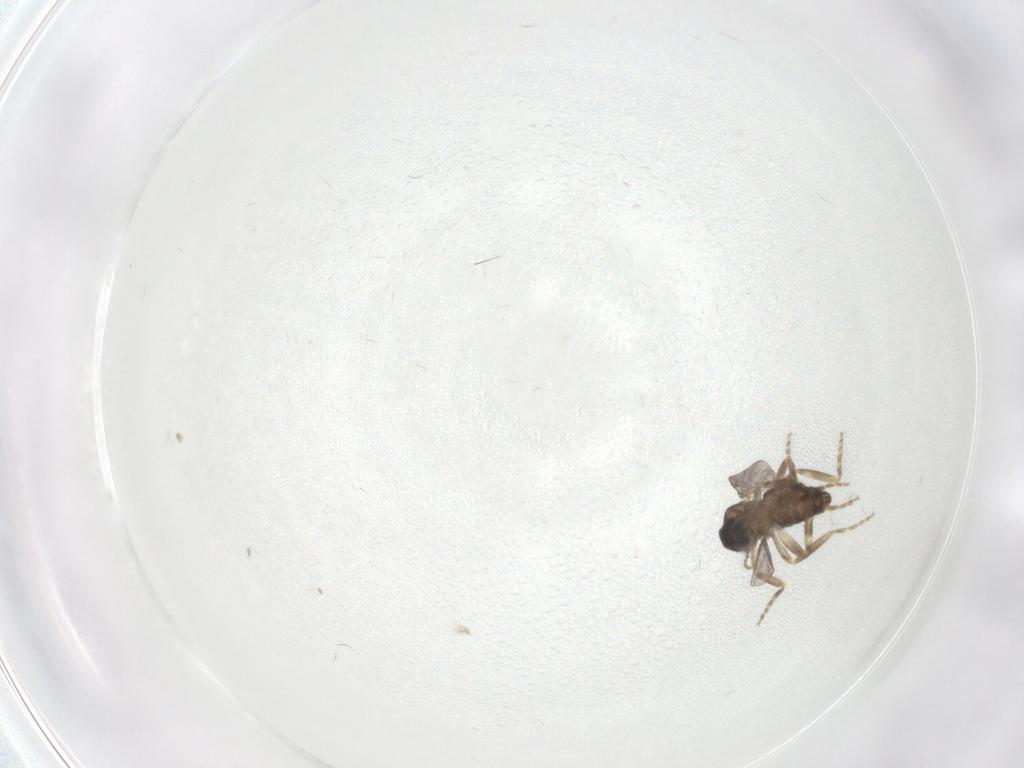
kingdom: Animalia
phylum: Arthropoda
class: Insecta
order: Diptera
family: Ceratopogonidae
